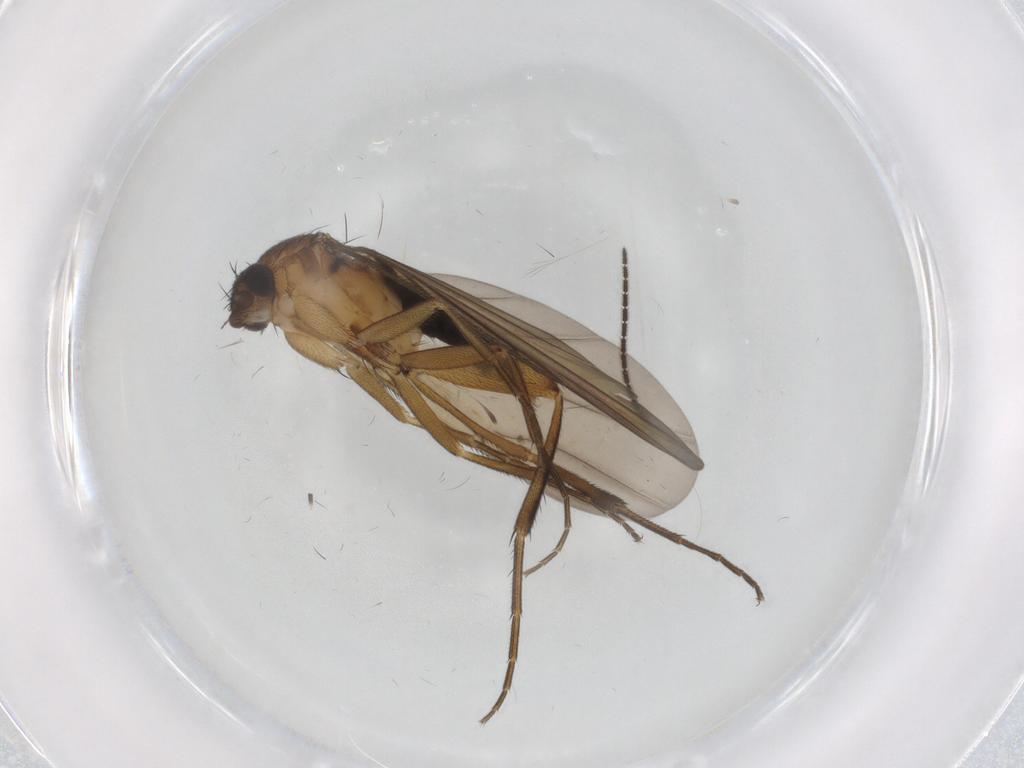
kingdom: Animalia
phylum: Arthropoda
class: Insecta
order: Diptera
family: Phoridae
